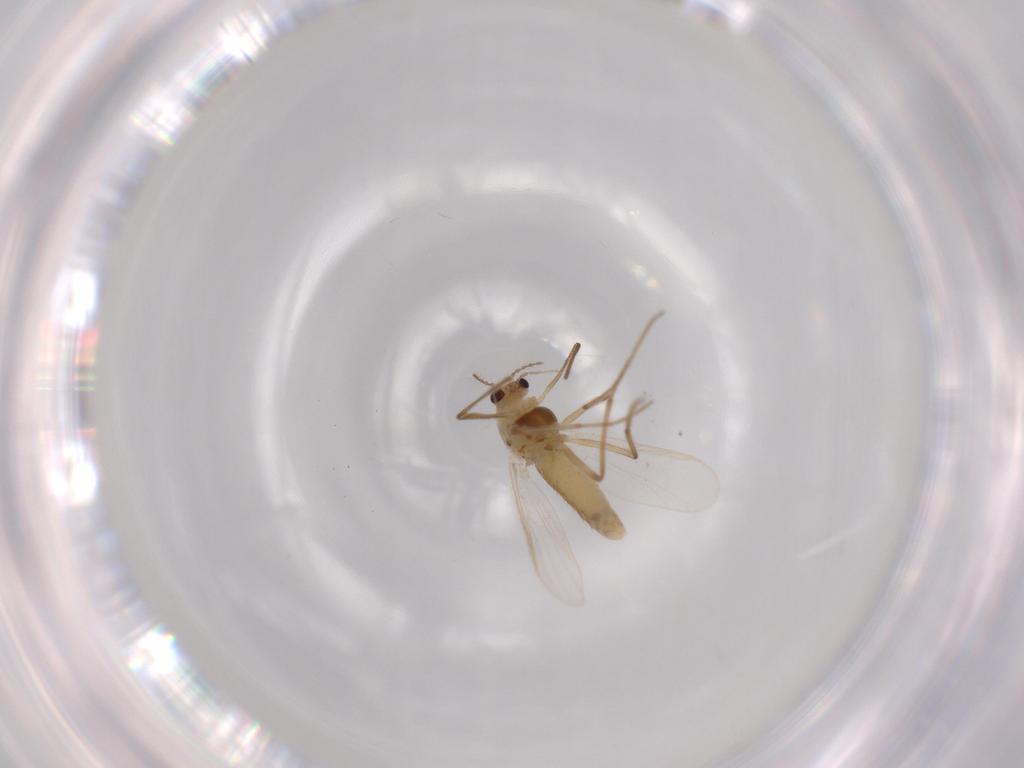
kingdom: Animalia
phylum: Arthropoda
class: Insecta
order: Diptera
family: Chironomidae
